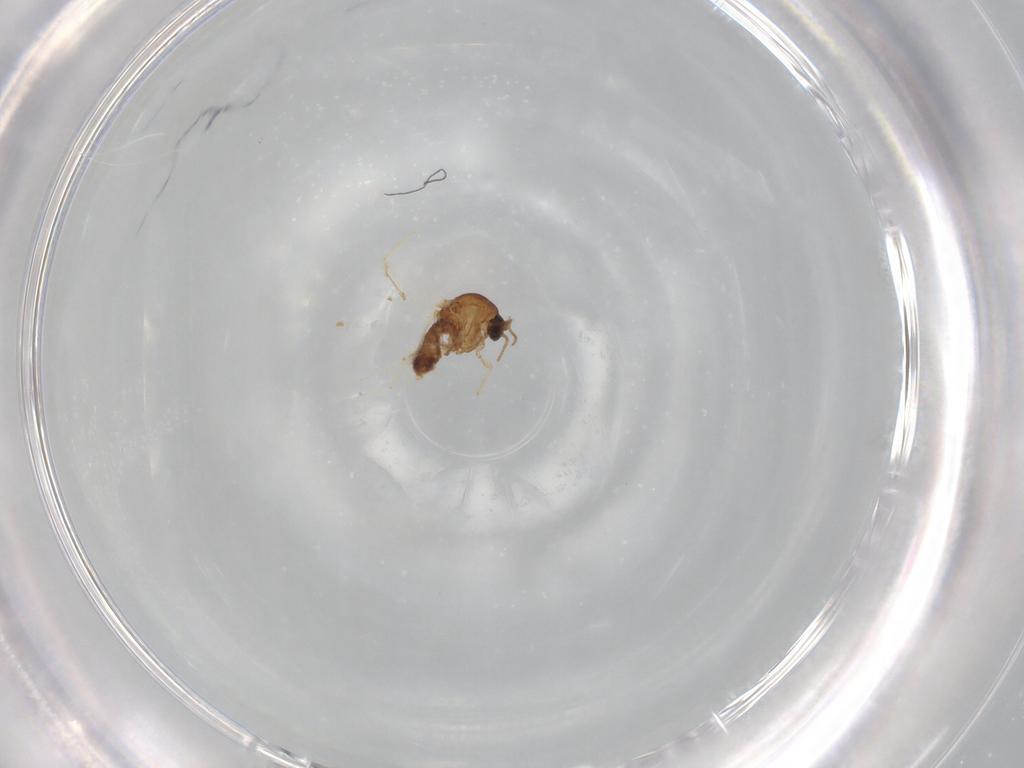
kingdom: Animalia
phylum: Arthropoda
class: Insecta
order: Diptera
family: Ceratopogonidae
